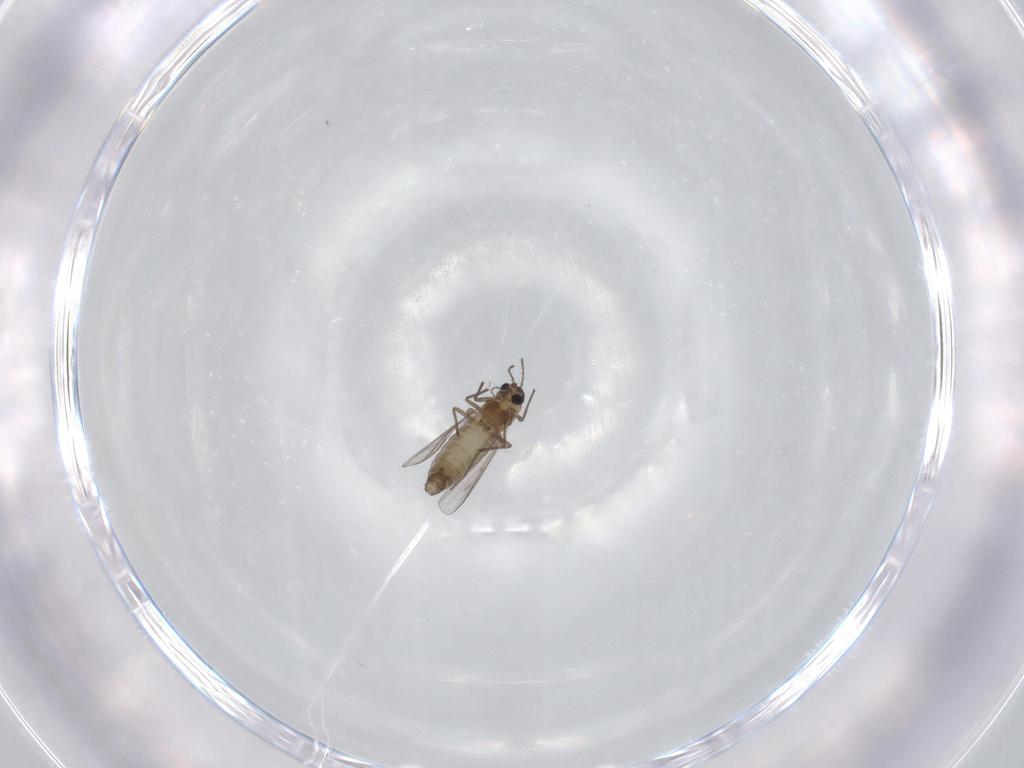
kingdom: Animalia
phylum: Arthropoda
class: Insecta
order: Diptera
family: Chironomidae
